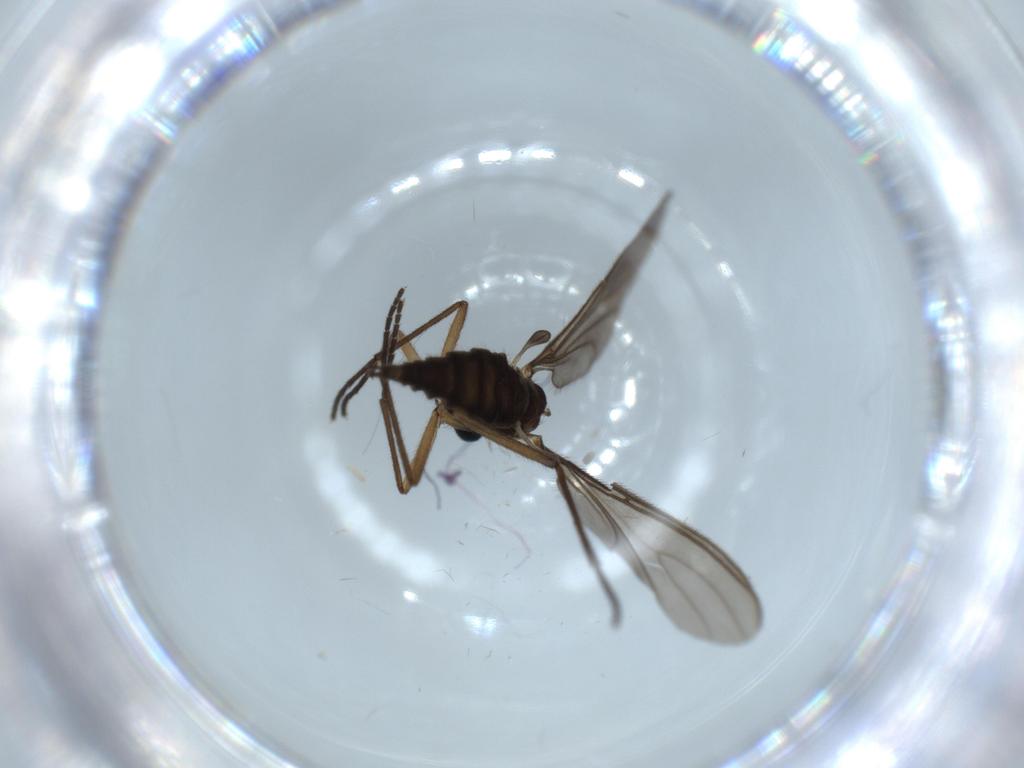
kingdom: Animalia
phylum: Arthropoda
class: Insecta
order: Diptera
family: Sciaridae
